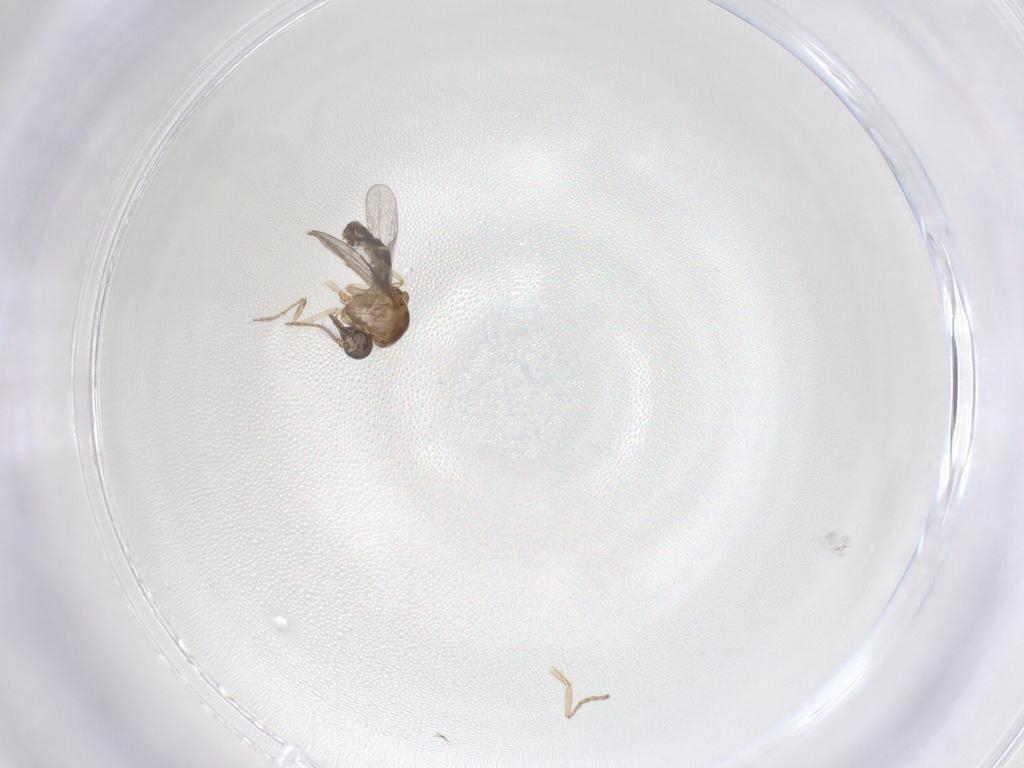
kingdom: Animalia
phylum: Arthropoda
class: Insecta
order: Diptera
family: Ceratopogonidae
